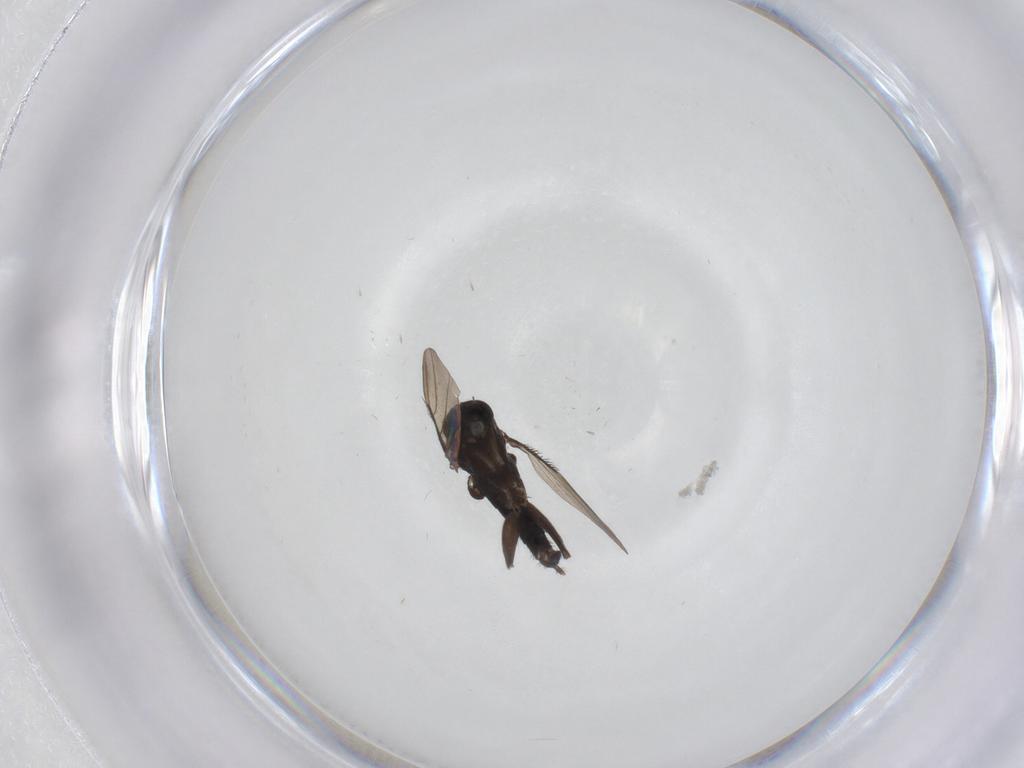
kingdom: Animalia
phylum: Arthropoda
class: Insecta
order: Diptera
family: Phoridae
